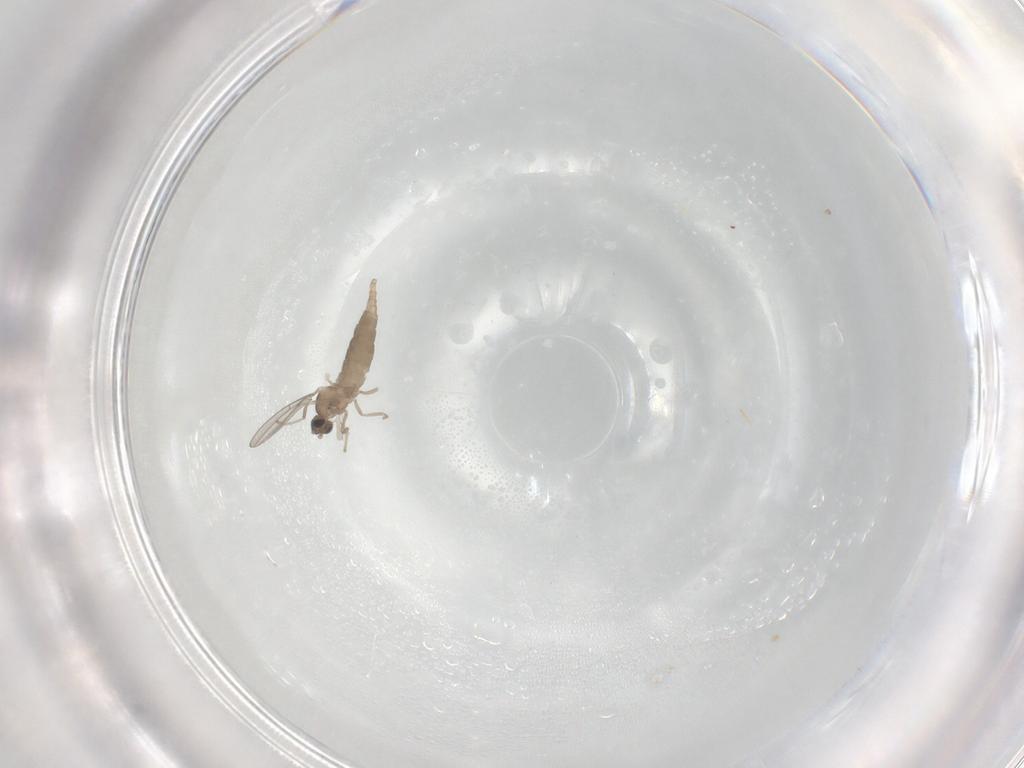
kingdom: Animalia
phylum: Arthropoda
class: Insecta
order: Diptera
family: Cecidomyiidae
